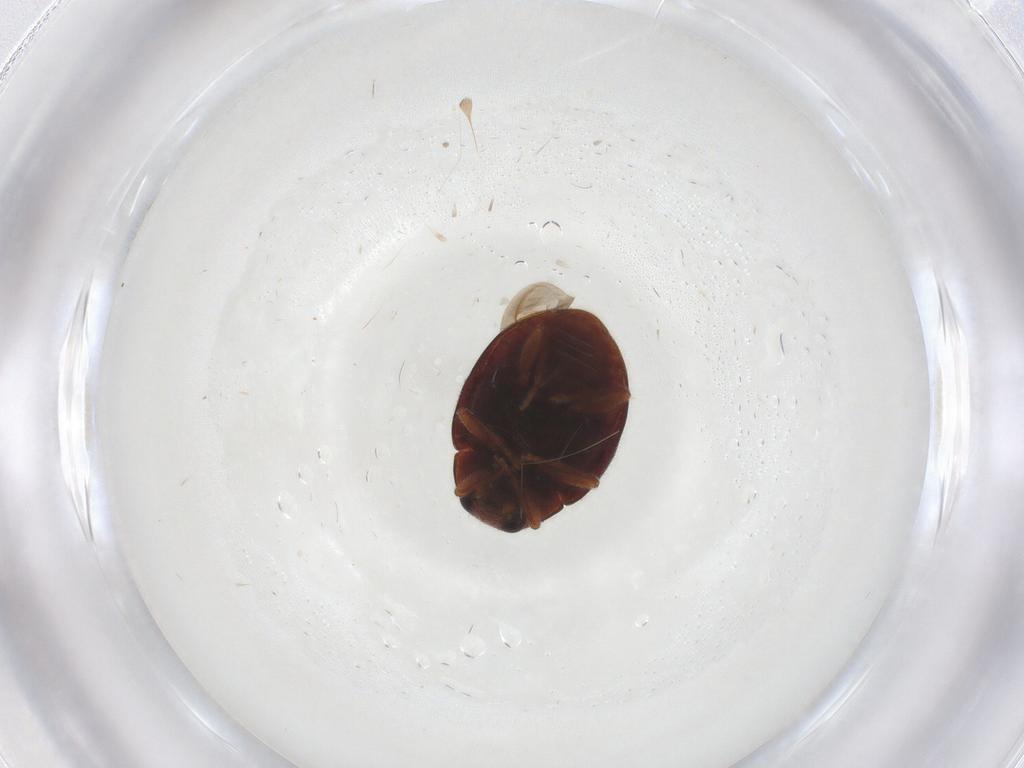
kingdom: Animalia
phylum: Arthropoda
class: Insecta
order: Coleoptera
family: Coccinellidae
